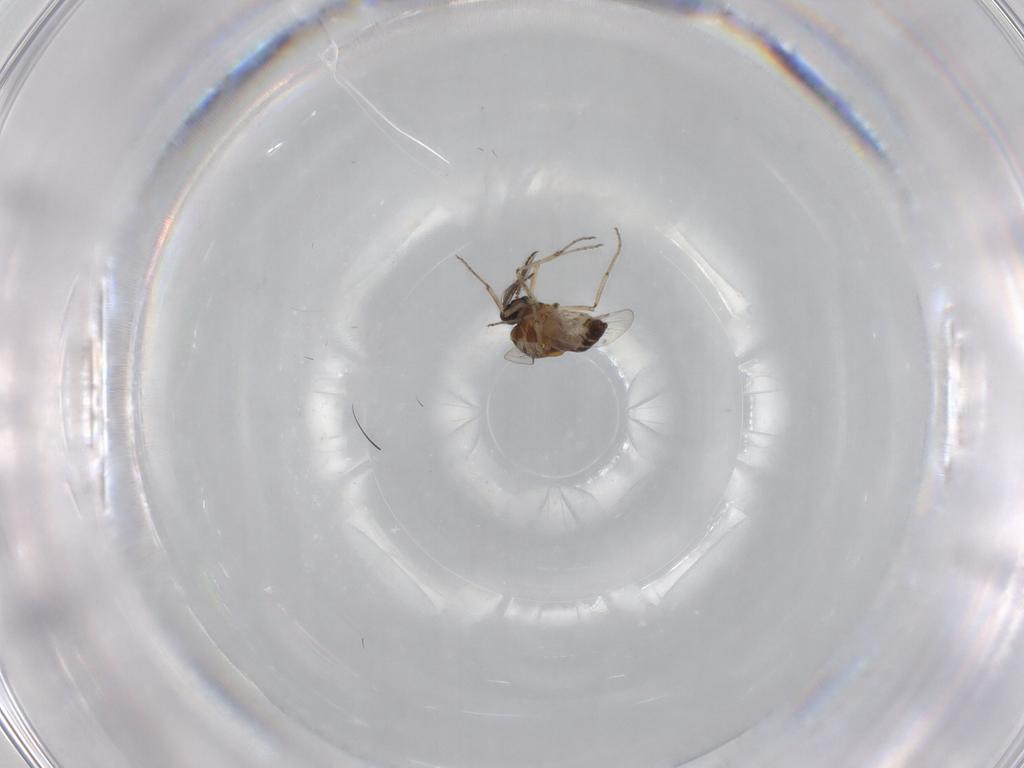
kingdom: Animalia
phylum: Arthropoda
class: Insecta
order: Diptera
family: Ceratopogonidae
